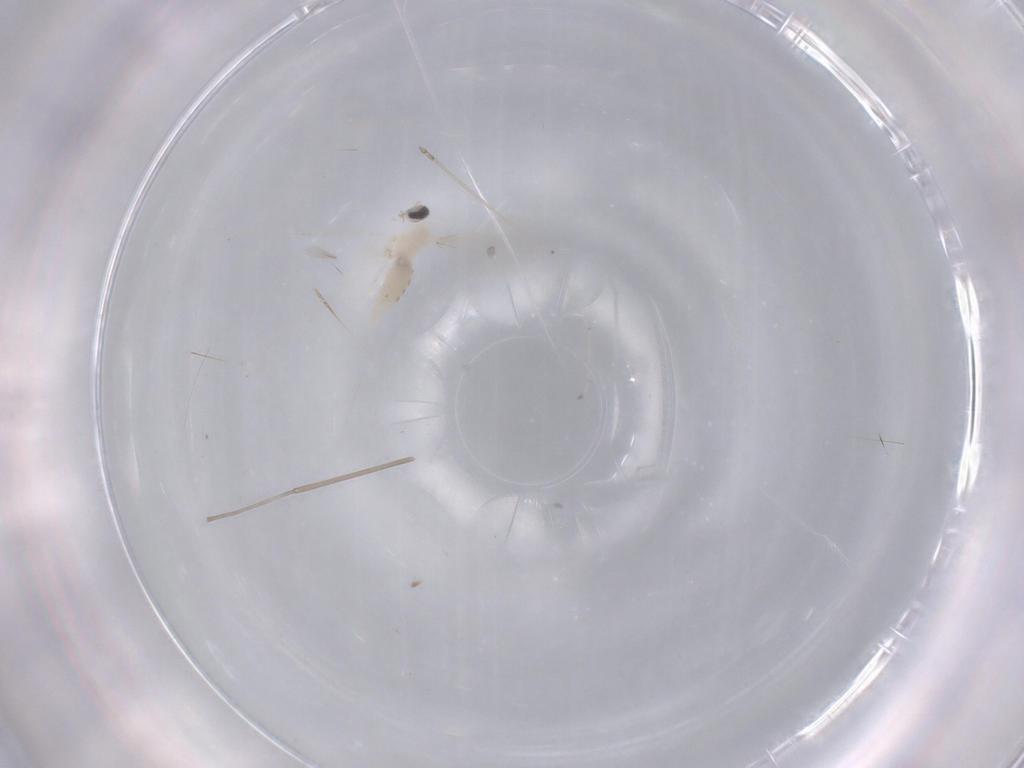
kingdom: Animalia
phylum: Arthropoda
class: Insecta
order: Diptera
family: Cecidomyiidae
